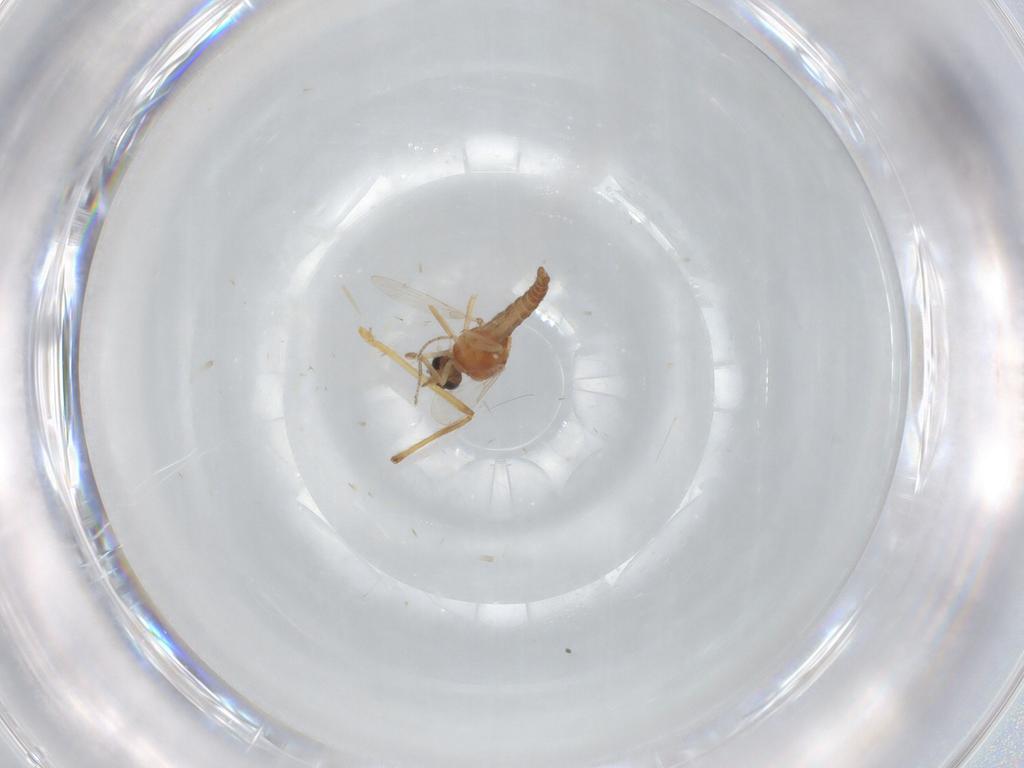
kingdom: Animalia
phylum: Arthropoda
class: Insecta
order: Diptera
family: Chironomidae
